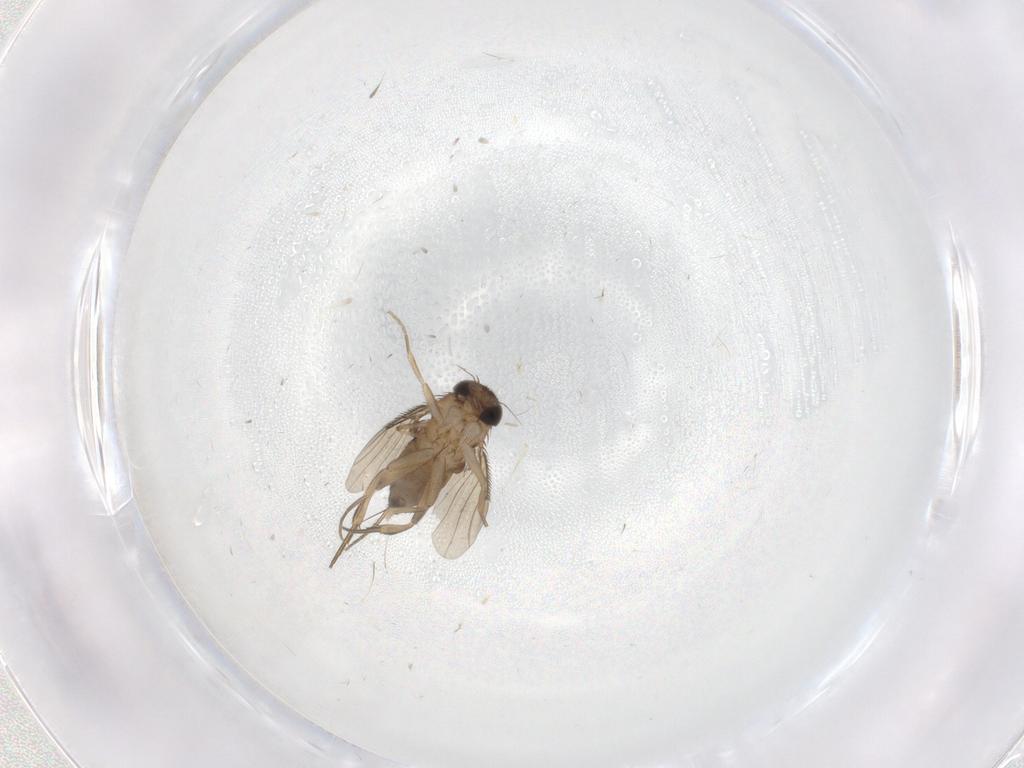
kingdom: Animalia
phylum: Arthropoda
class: Insecta
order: Diptera
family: Phoridae
